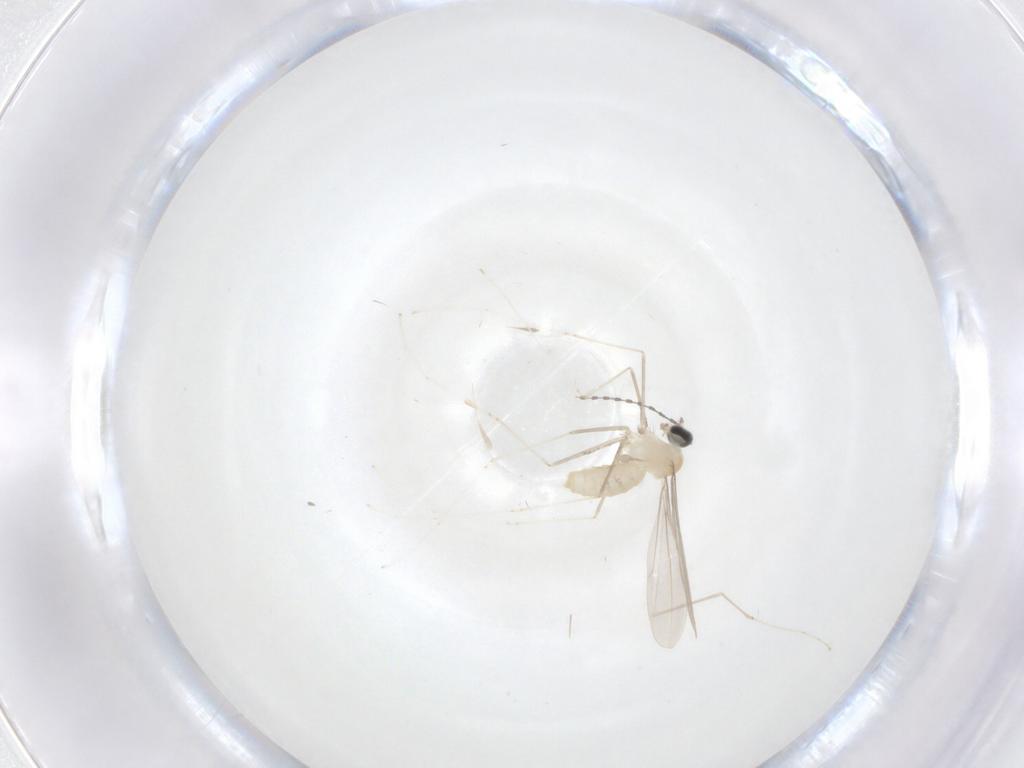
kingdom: Animalia
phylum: Arthropoda
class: Insecta
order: Diptera
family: Cecidomyiidae
